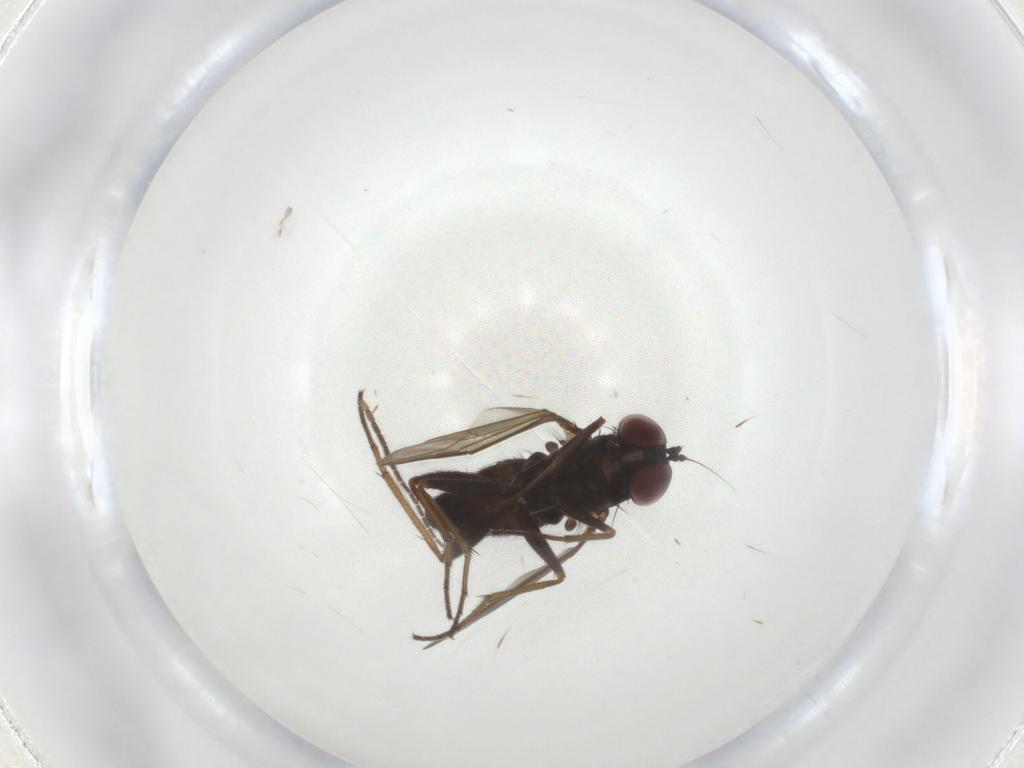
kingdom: Animalia
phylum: Arthropoda
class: Insecta
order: Diptera
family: Dolichopodidae
